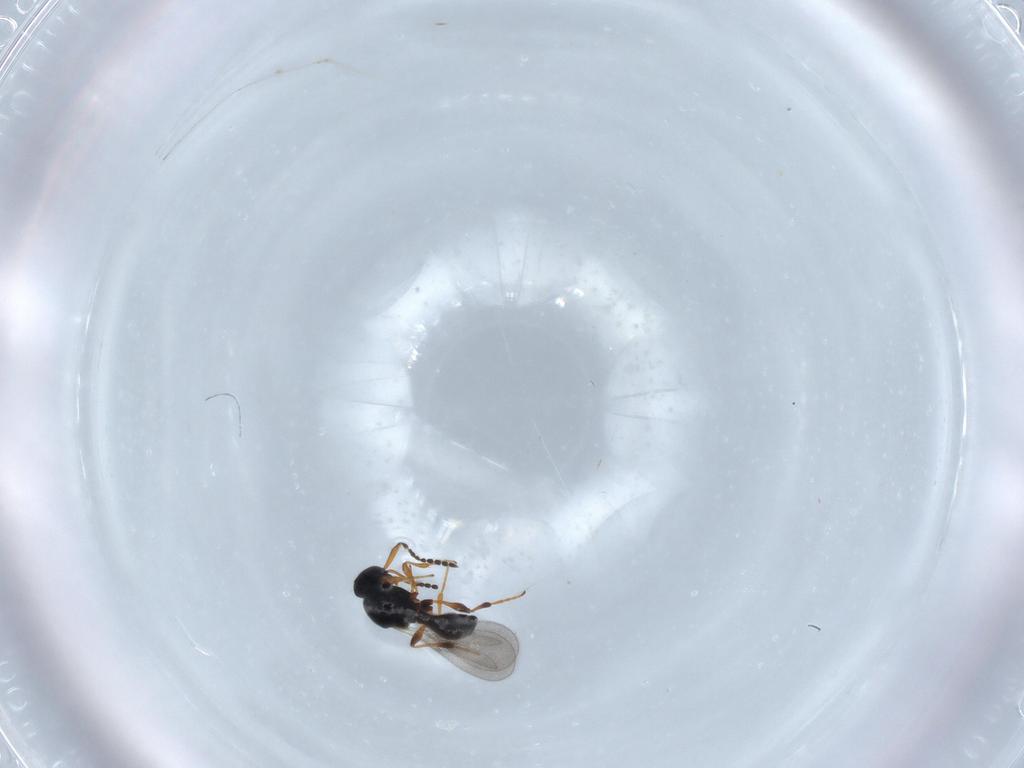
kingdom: Animalia
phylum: Arthropoda
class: Insecta
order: Hymenoptera
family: Platygastridae
